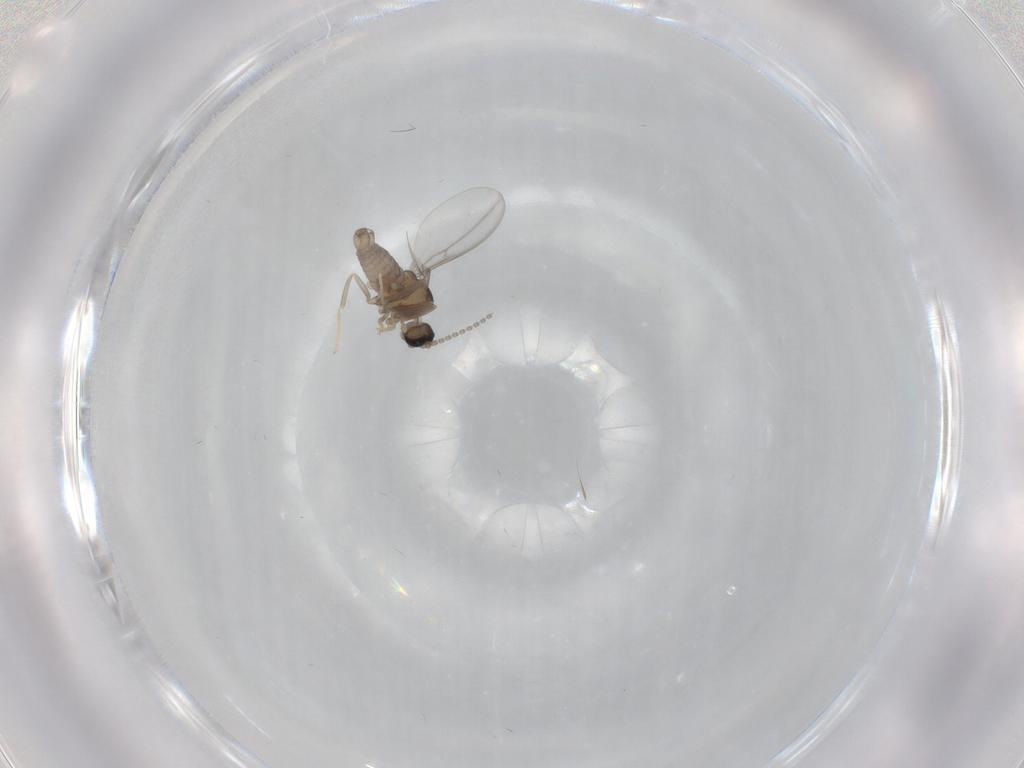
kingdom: Animalia
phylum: Arthropoda
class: Insecta
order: Diptera
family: Cecidomyiidae
